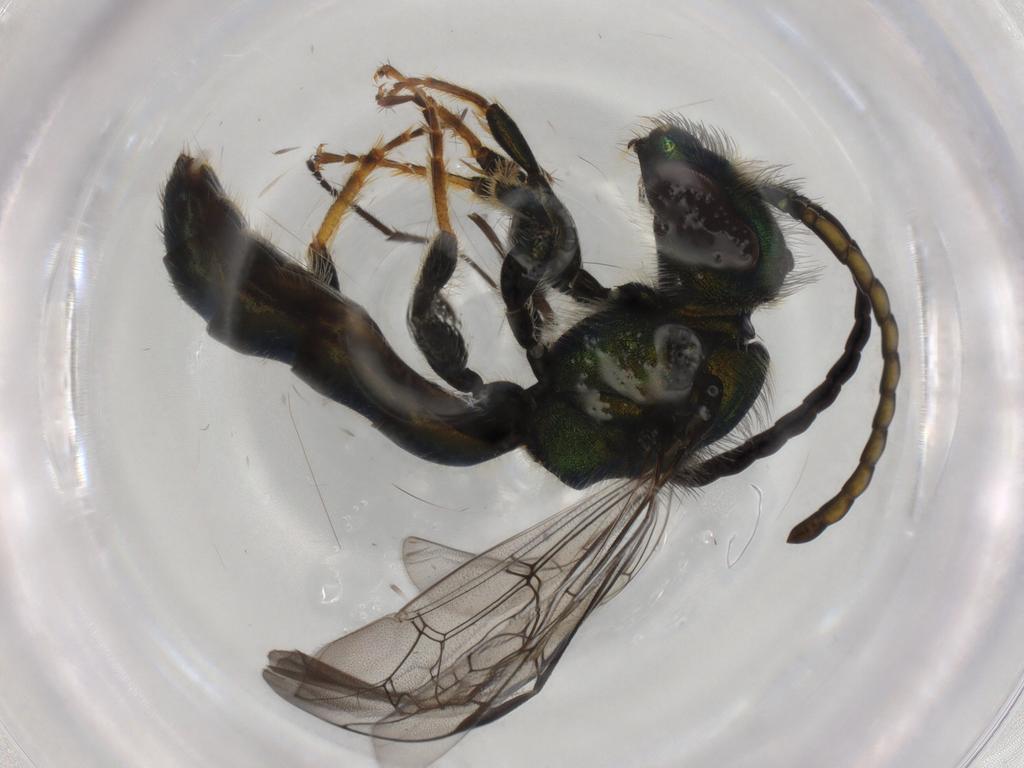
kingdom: Animalia
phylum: Arthropoda
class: Insecta
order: Hymenoptera
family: Halictidae
